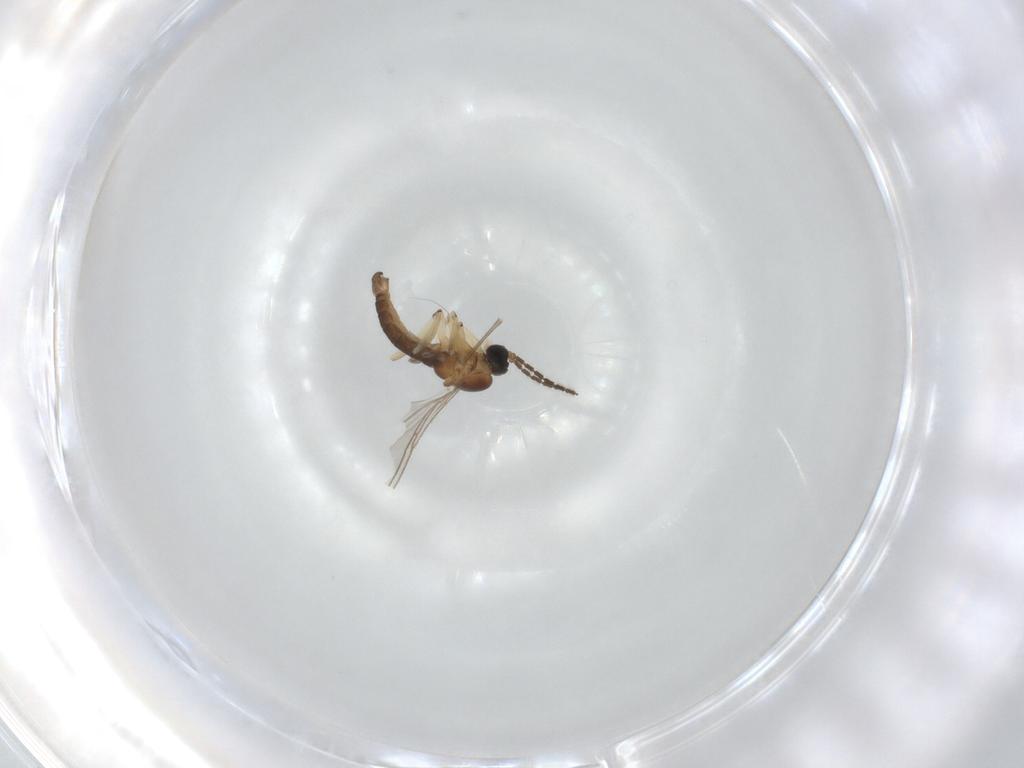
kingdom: Animalia
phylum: Arthropoda
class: Insecta
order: Diptera
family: Sciaridae
